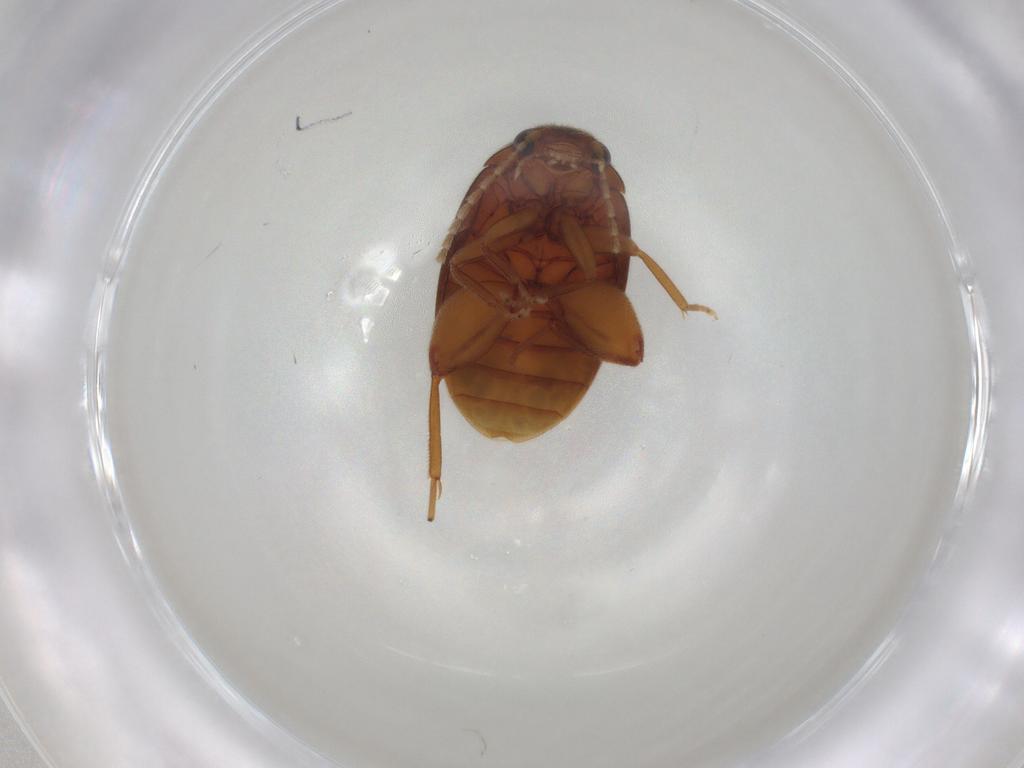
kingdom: Animalia
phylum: Arthropoda
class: Insecta
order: Coleoptera
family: Scirtidae
